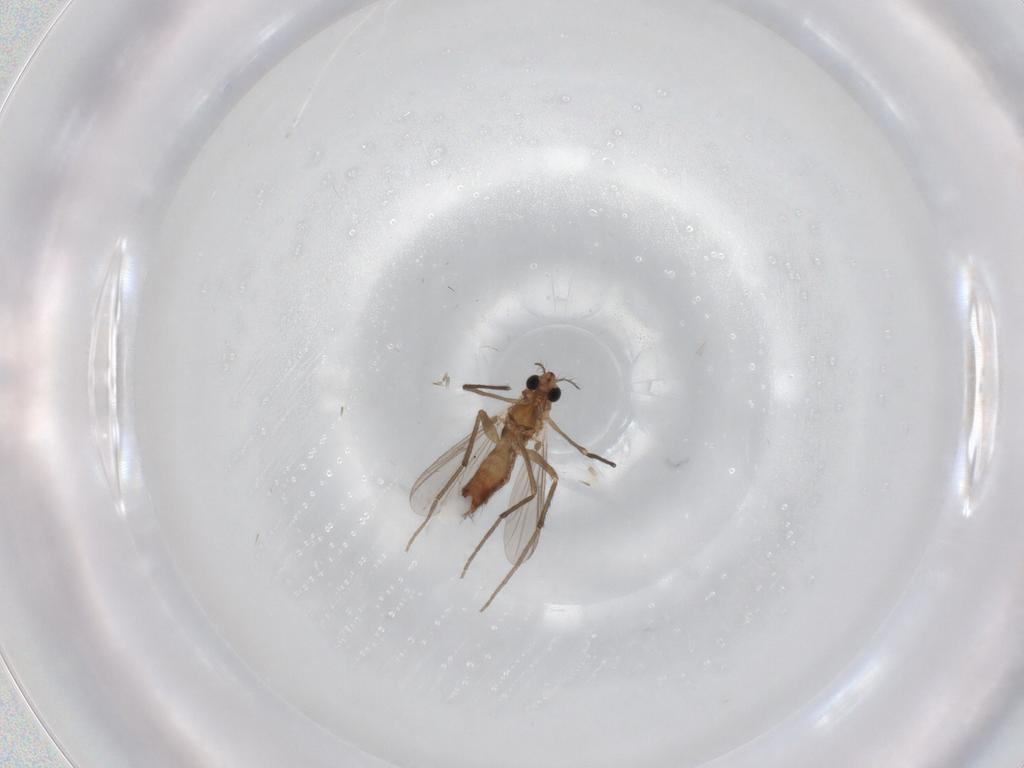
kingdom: Animalia
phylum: Arthropoda
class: Insecta
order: Diptera
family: Chironomidae
